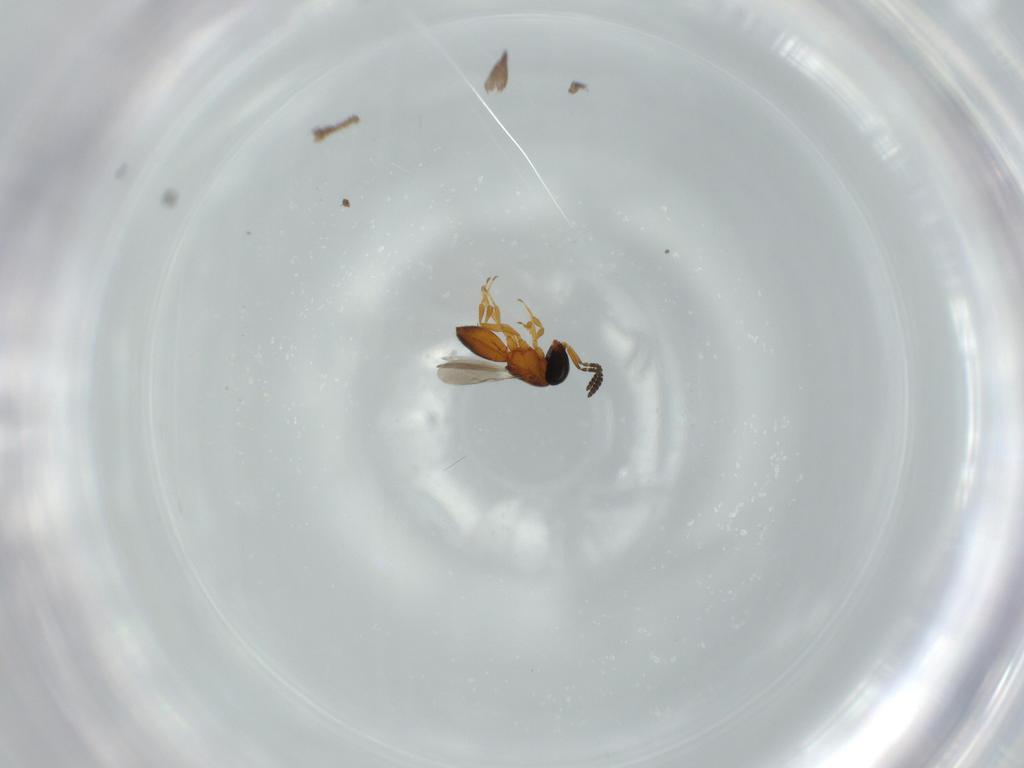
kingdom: Animalia
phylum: Arthropoda
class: Insecta
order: Hymenoptera
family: Scelionidae
